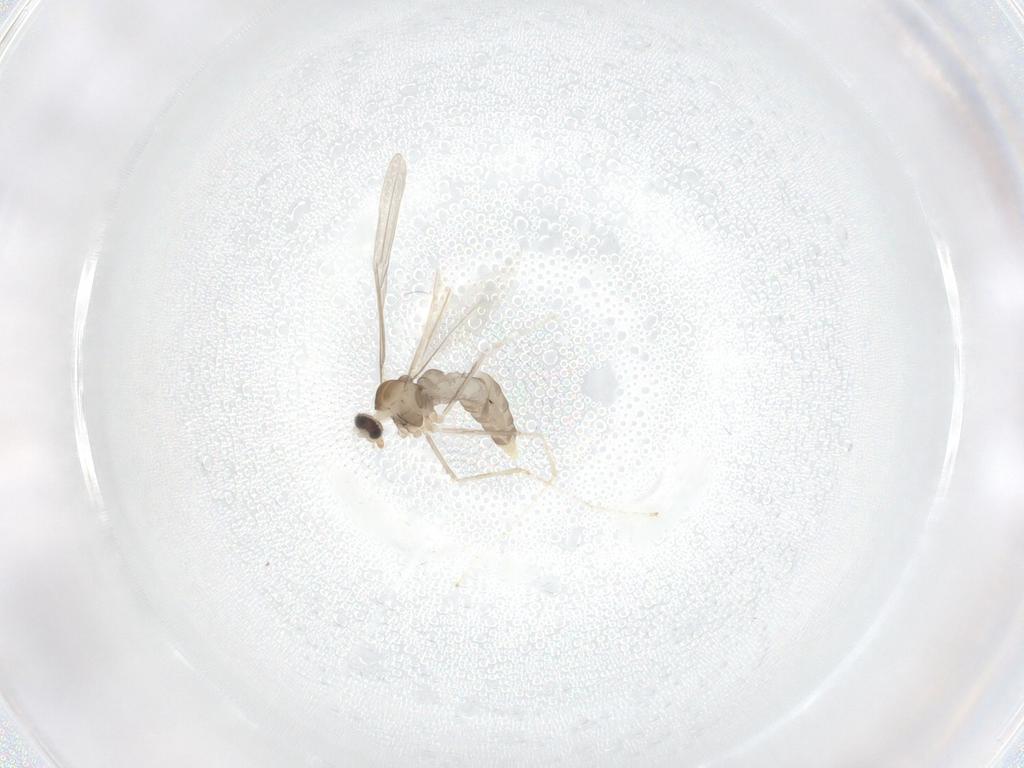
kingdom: Animalia
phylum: Arthropoda
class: Insecta
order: Diptera
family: Cecidomyiidae
